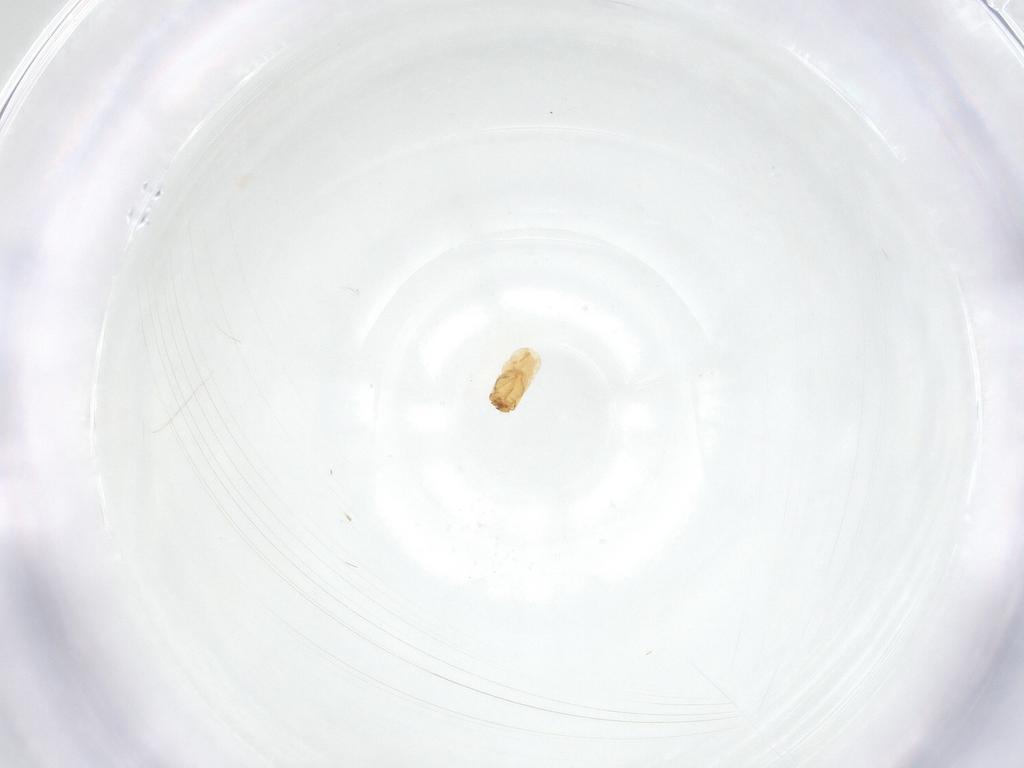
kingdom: Animalia
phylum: Arthropoda
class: Insecta
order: Diptera
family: Fergusoninidae
